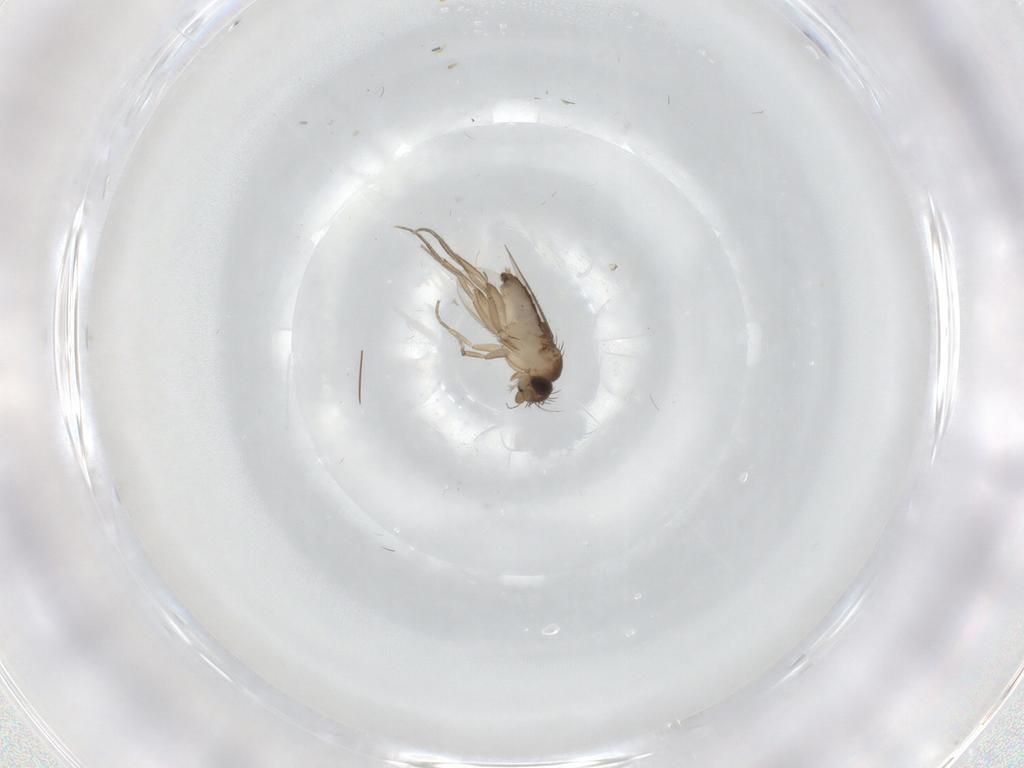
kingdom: Animalia
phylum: Arthropoda
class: Insecta
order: Diptera
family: Phoridae
